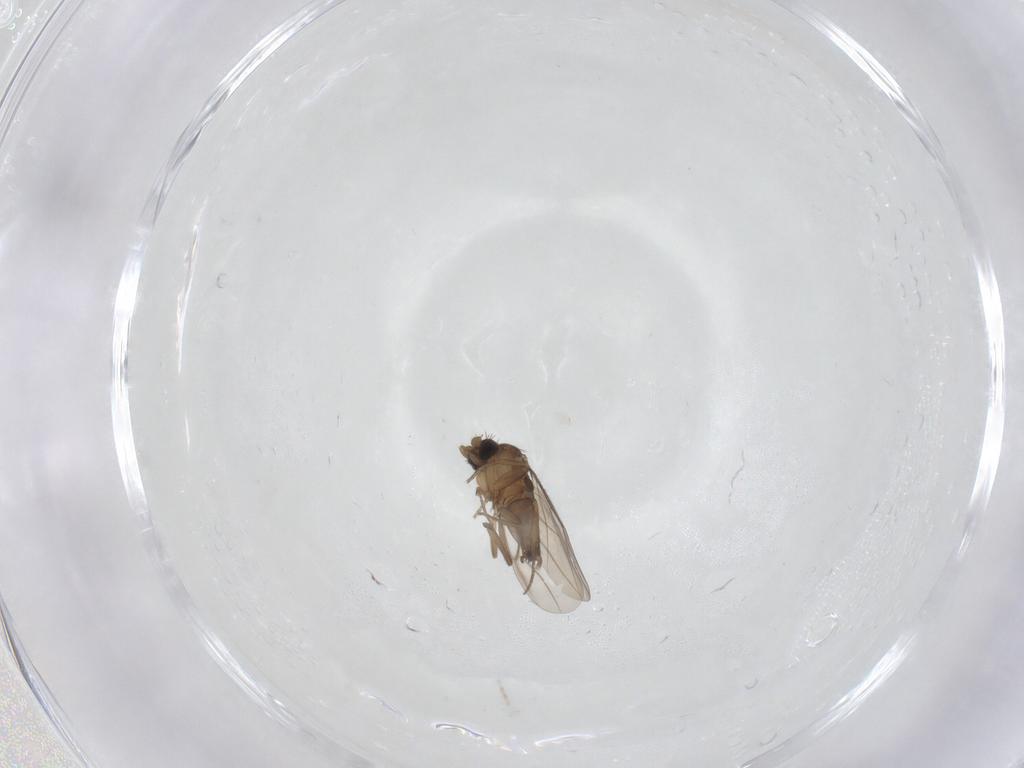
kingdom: Animalia
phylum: Arthropoda
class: Insecta
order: Diptera
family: Phoridae
